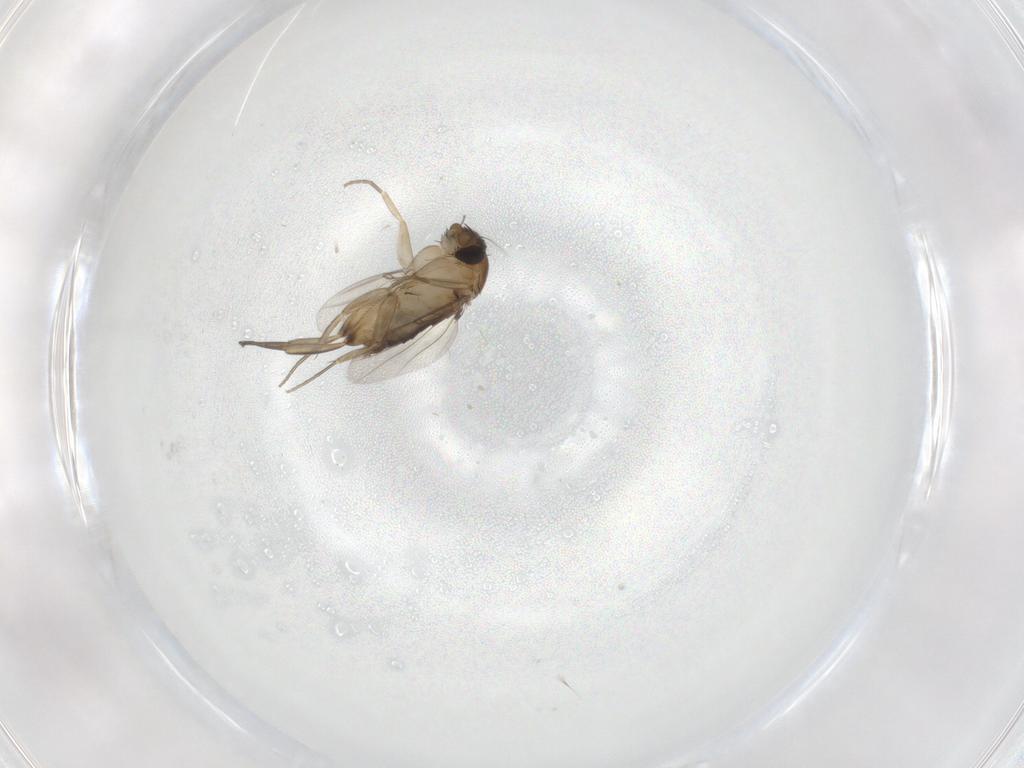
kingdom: Animalia
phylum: Arthropoda
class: Insecta
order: Diptera
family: Phoridae
